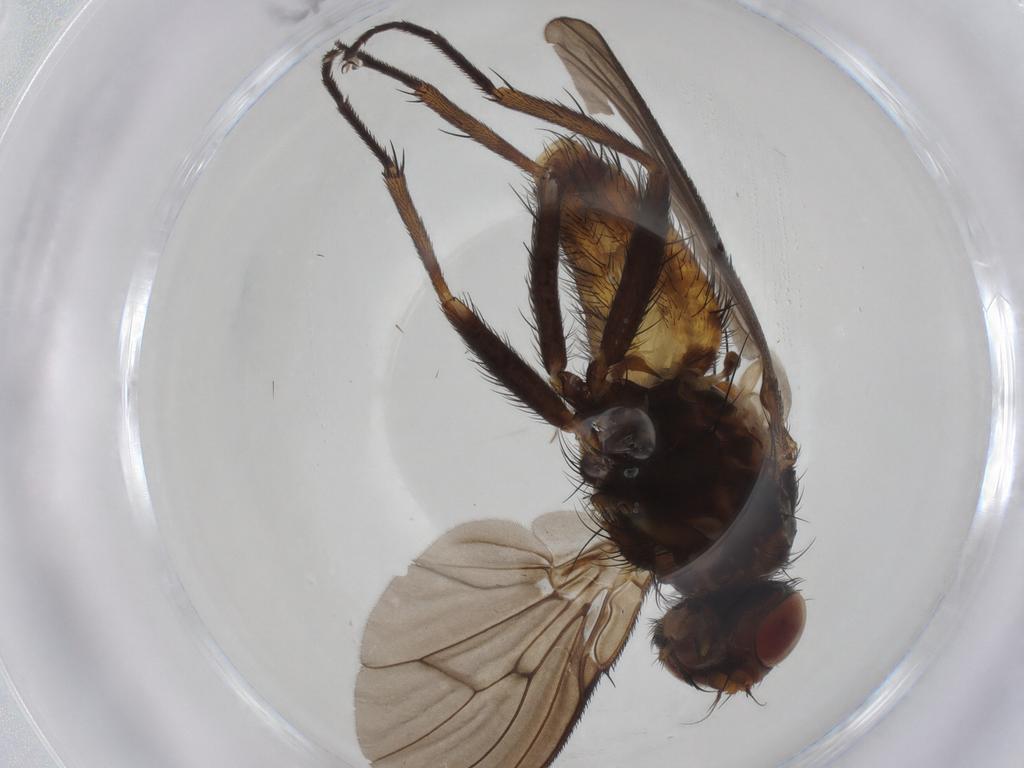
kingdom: Animalia
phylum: Arthropoda
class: Insecta
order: Diptera
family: Muscidae
